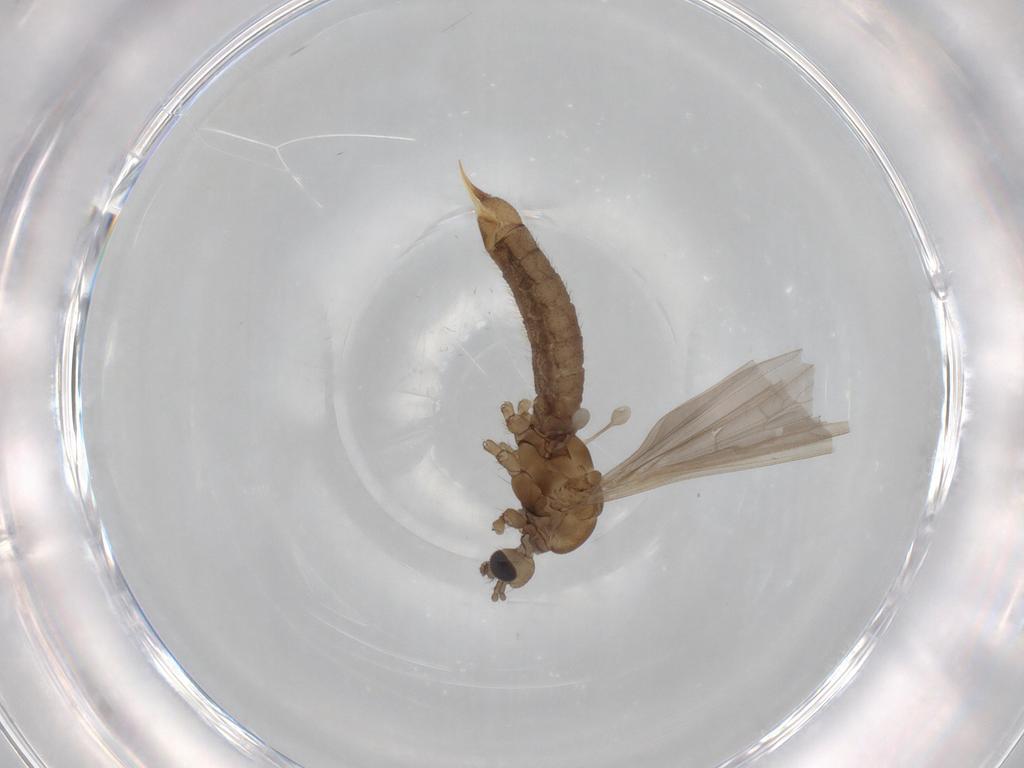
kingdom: Animalia
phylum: Arthropoda
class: Insecta
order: Diptera
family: Limoniidae
